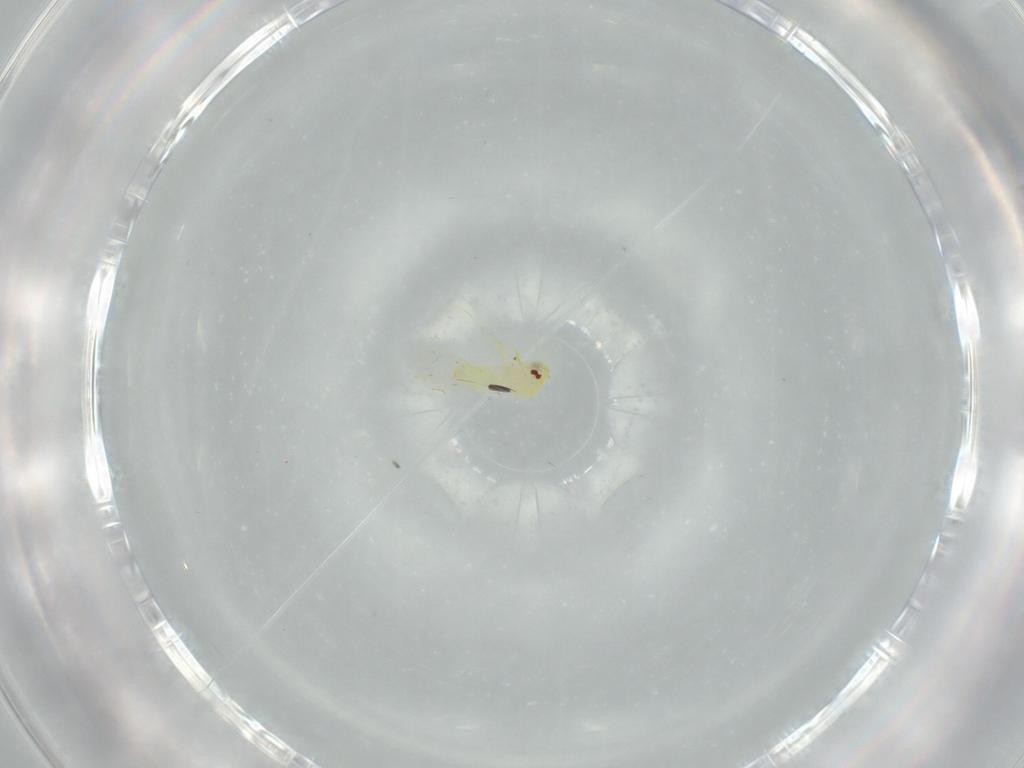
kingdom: Animalia
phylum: Arthropoda
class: Insecta
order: Hemiptera
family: Aleyrodidae
